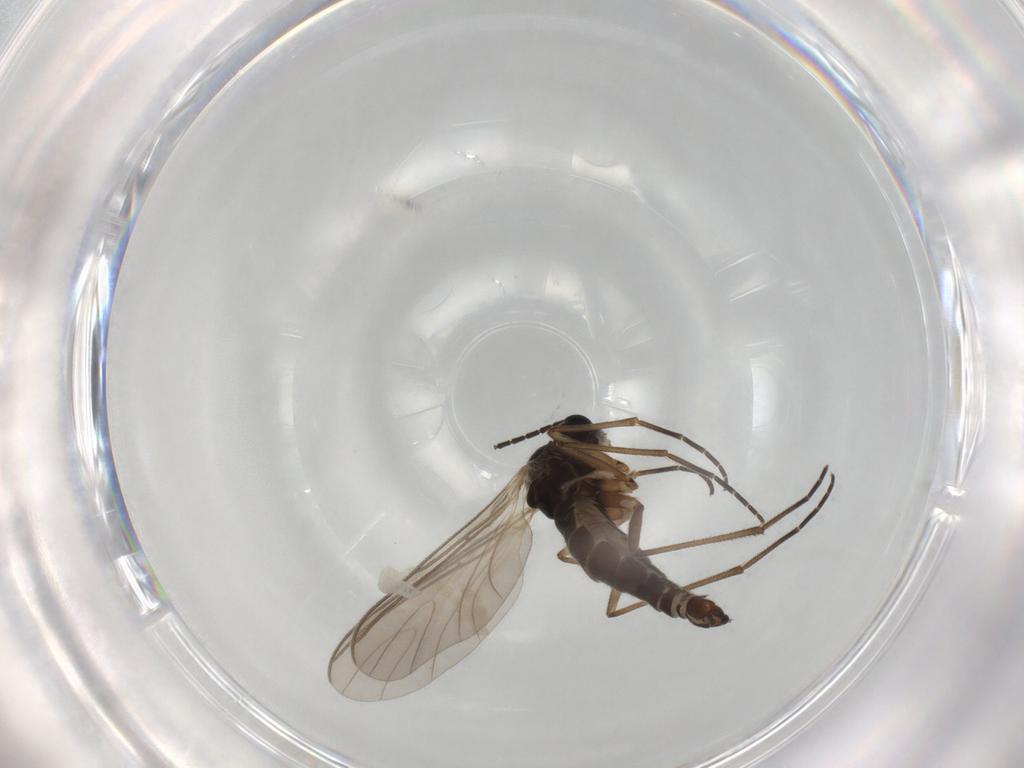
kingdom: Animalia
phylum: Arthropoda
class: Insecta
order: Diptera
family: Muscidae
